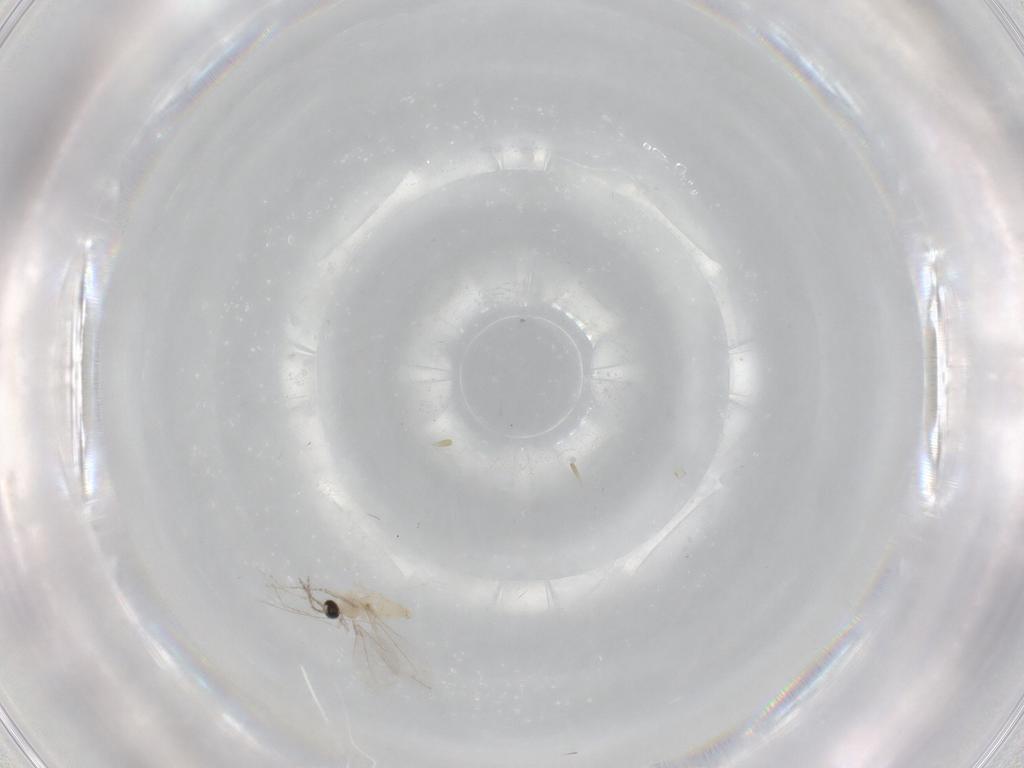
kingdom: Animalia
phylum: Arthropoda
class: Insecta
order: Diptera
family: Cecidomyiidae
